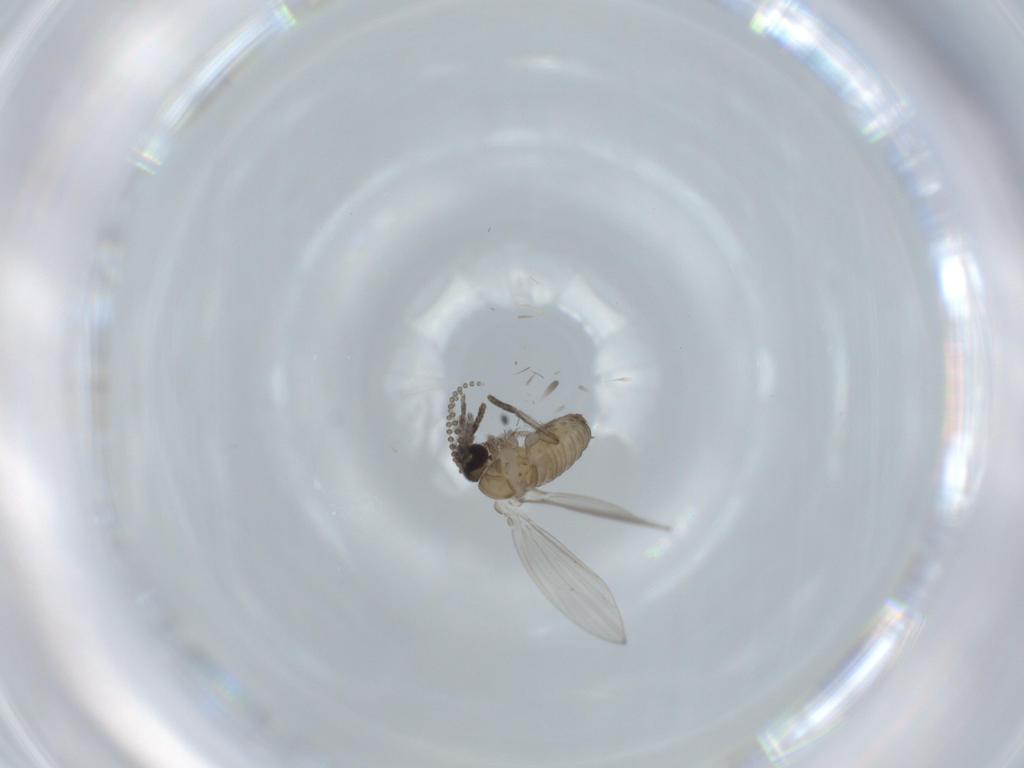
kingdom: Animalia
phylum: Arthropoda
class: Insecta
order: Diptera
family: Psychodidae
